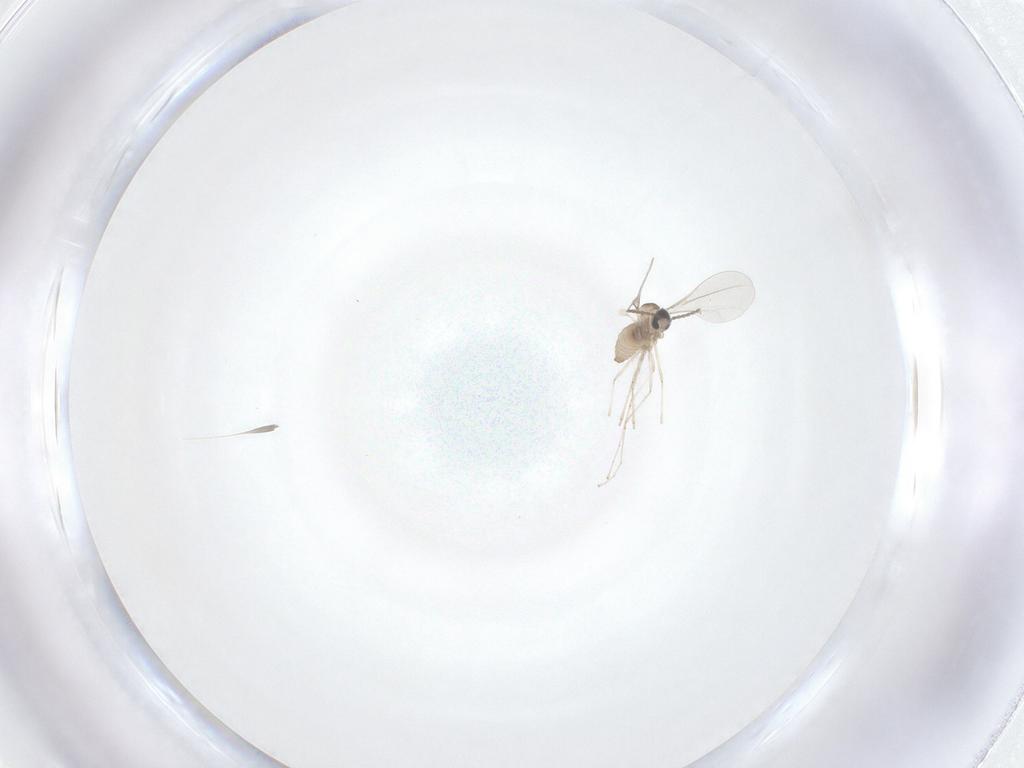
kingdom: Animalia
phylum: Arthropoda
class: Insecta
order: Diptera
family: Cecidomyiidae
